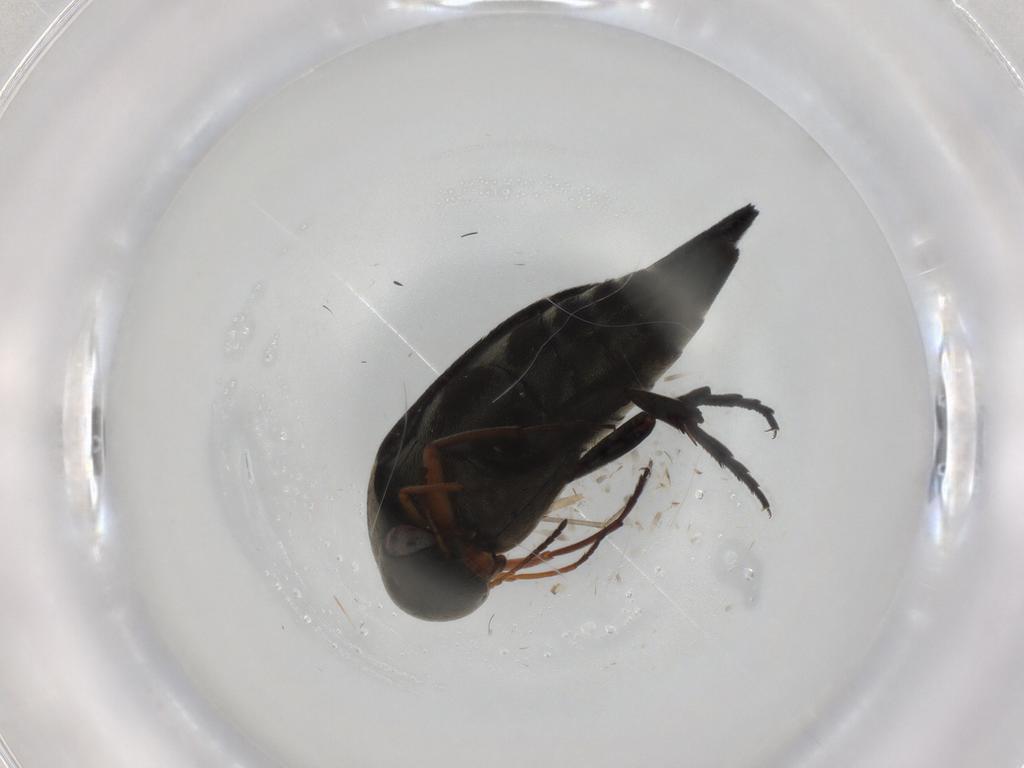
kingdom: Animalia
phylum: Arthropoda
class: Insecta
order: Coleoptera
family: Mordellidae
